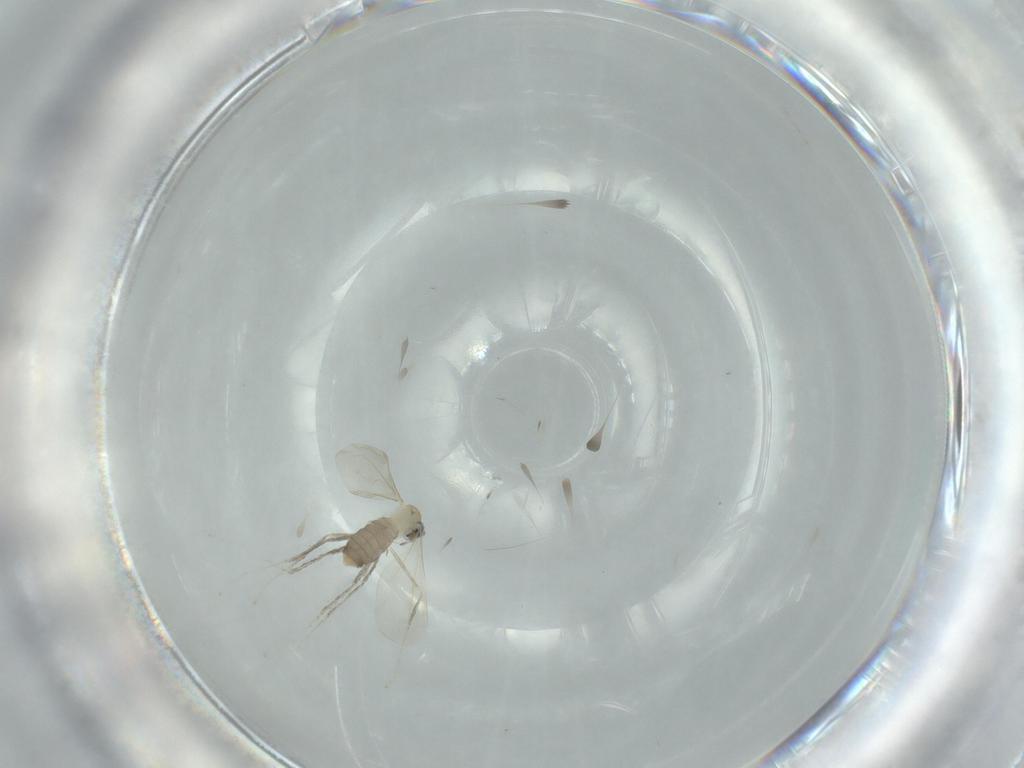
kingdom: Animalia
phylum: Arthropoda
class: Insecta
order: Diptera
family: Cecidomyiidae
